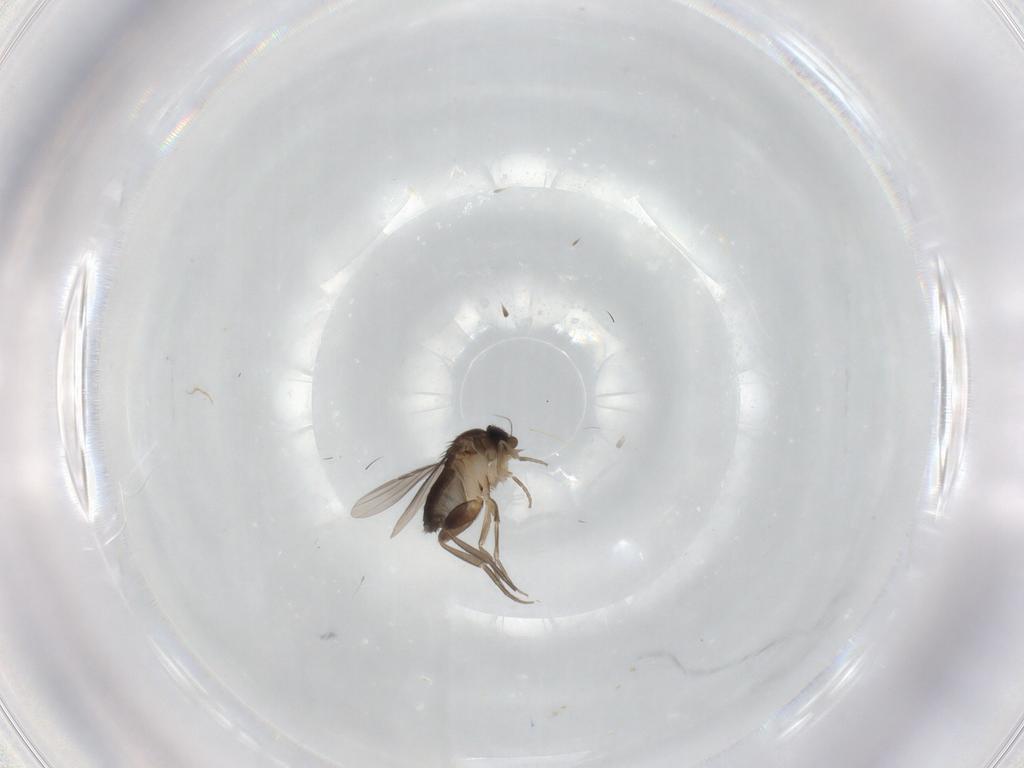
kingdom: Animalia
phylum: Arthropoda
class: Insecta
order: Diptera
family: Phoridae
